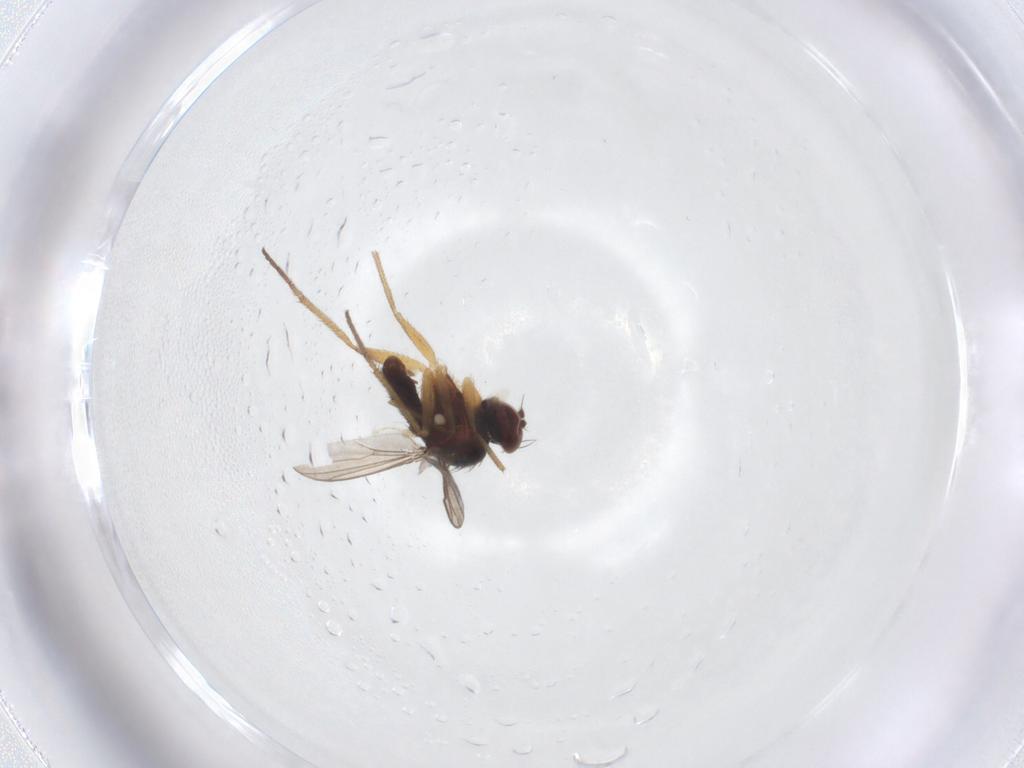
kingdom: Animalia
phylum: Arthropoda
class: Insecta
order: Diptera
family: Dolichopodidae
